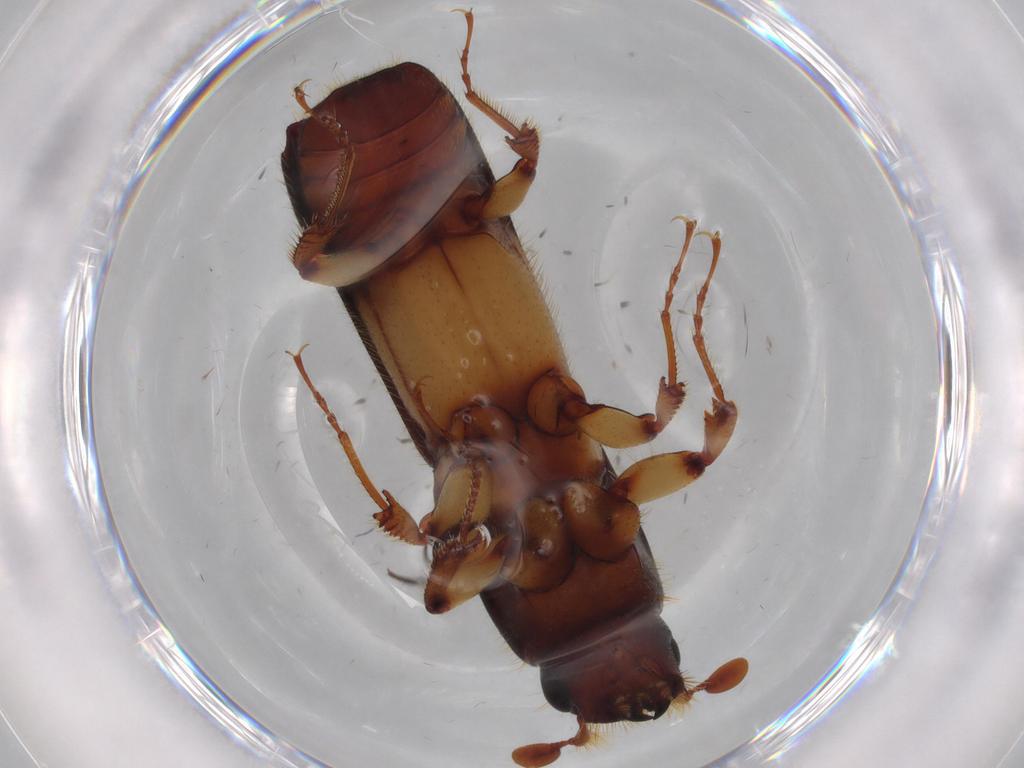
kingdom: Animalia
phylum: Arthropoda
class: Insecta
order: Coleoptera
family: Curculionidae
